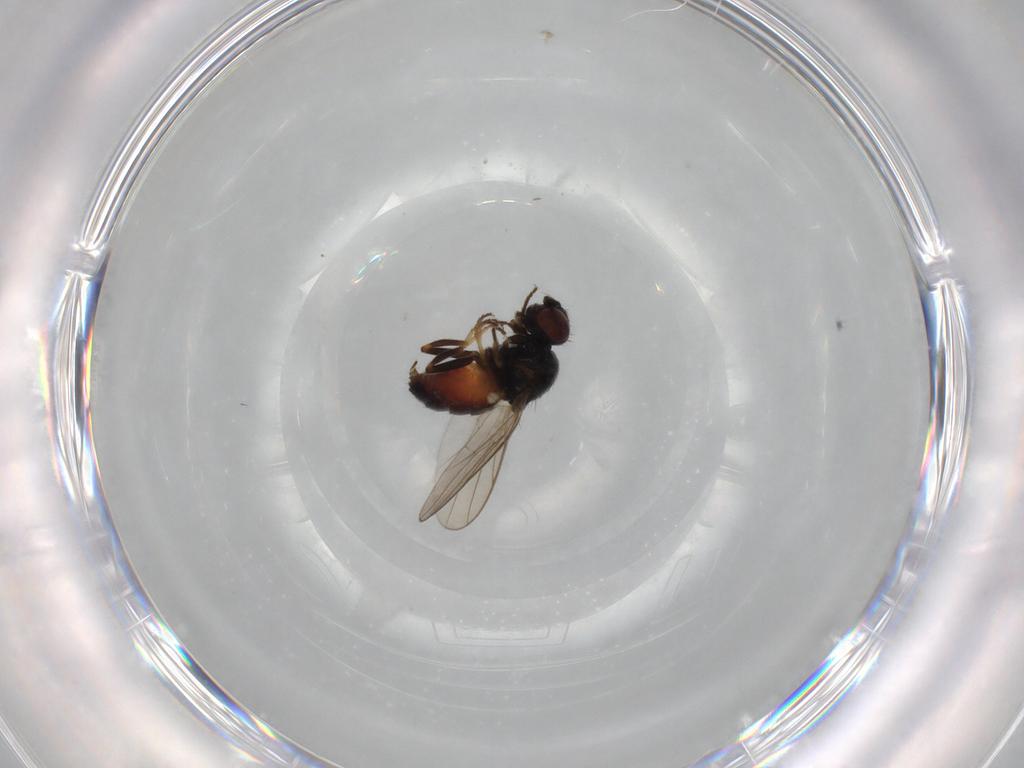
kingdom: Animalia
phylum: Arthropoda
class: Insecta
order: Diptera
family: Chloropidae
